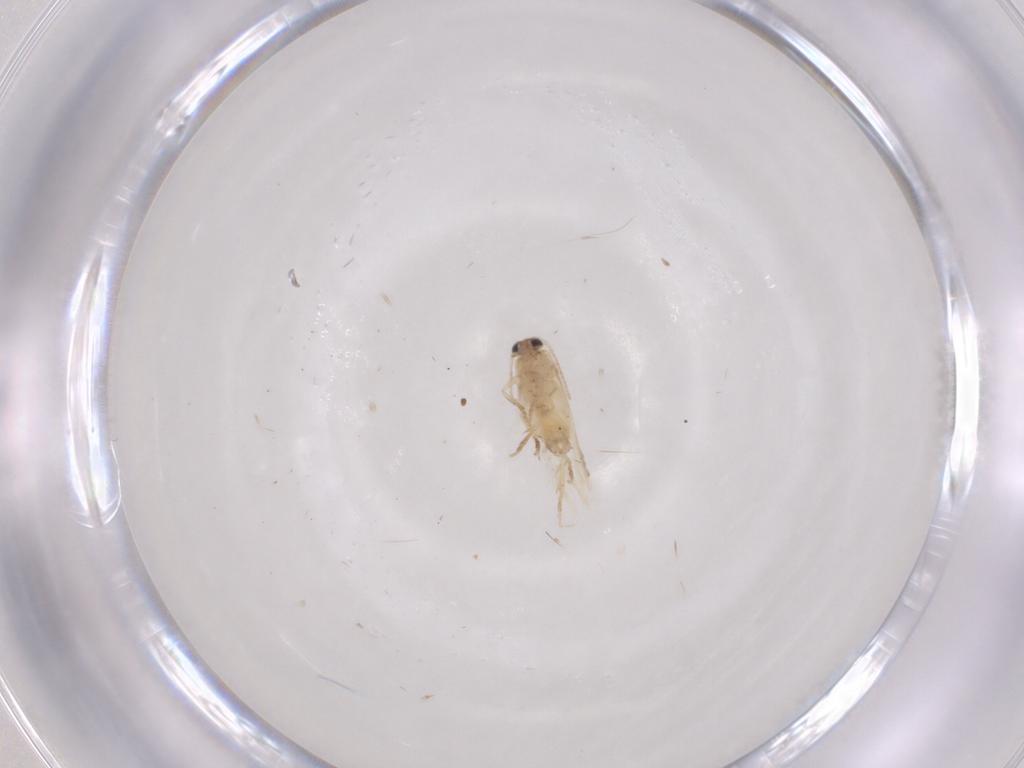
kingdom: Animalia
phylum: Arthropoda
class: Insecta
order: Lepidoptera
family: Nepticulidae
